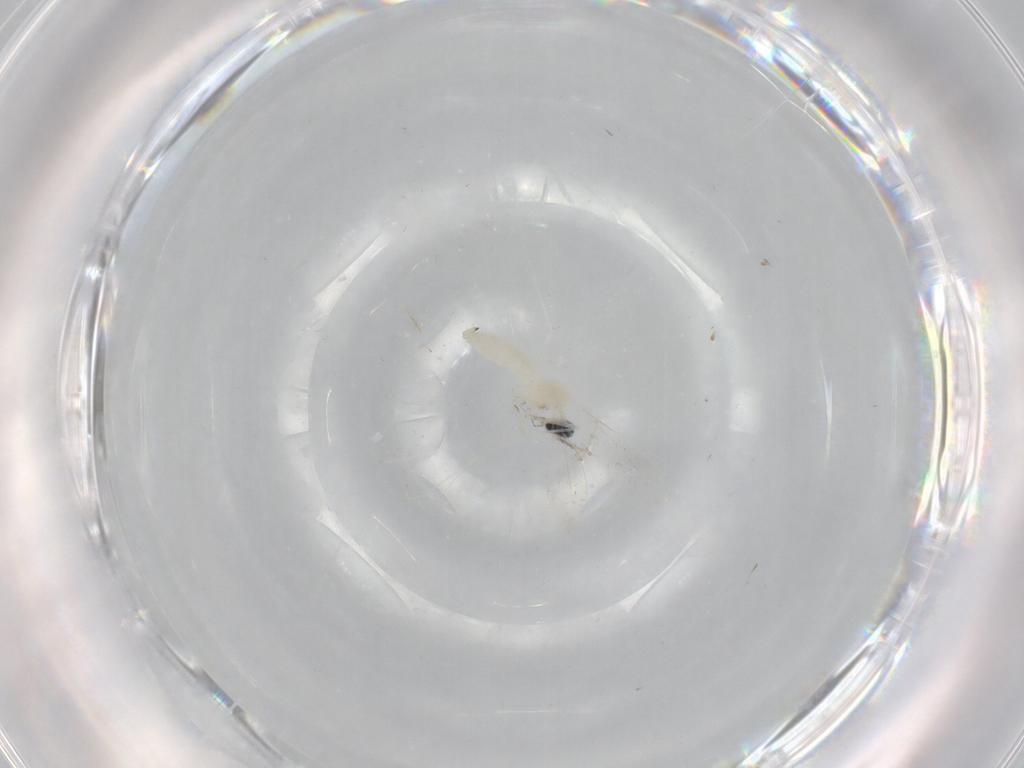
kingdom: Animalia
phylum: Arthropoda
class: Insecta
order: Diptera
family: Cecidomyiidae
